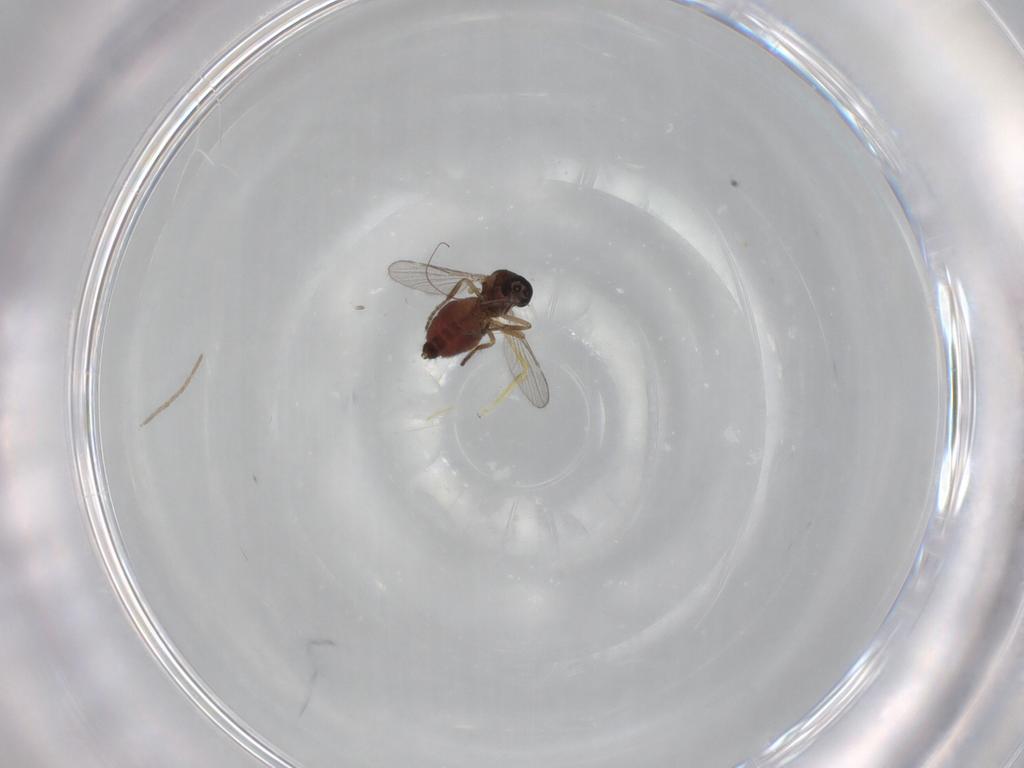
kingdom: Animalia
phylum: Arthropoda
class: Insecta
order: Diptera
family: Chironomidae
